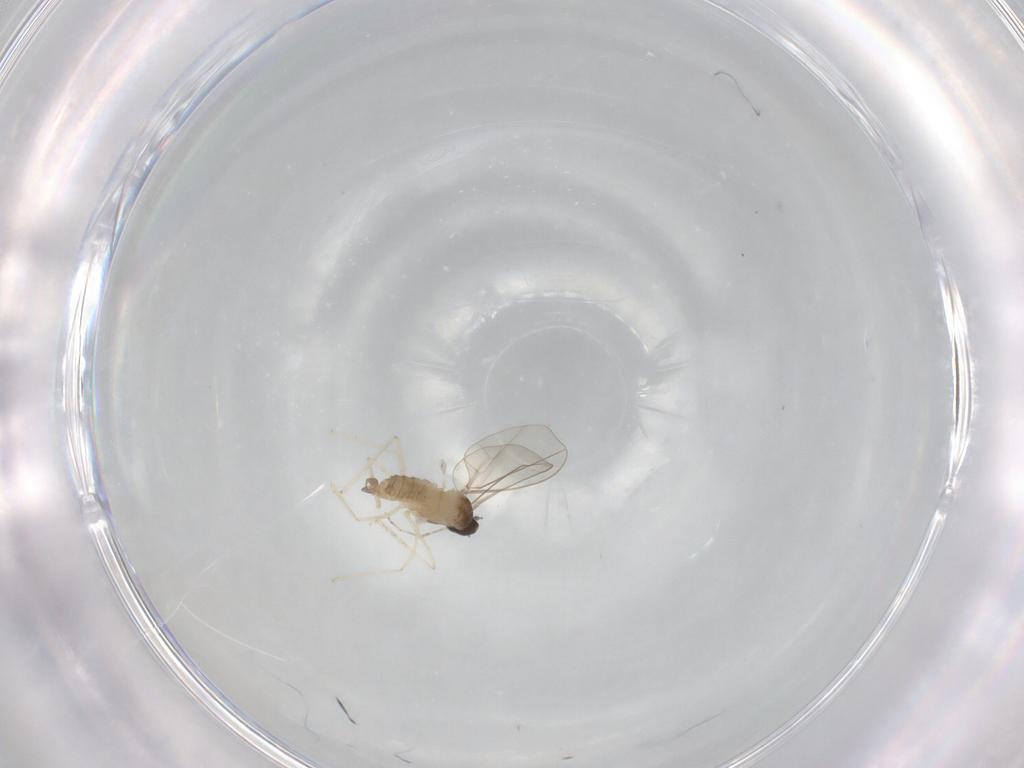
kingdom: Animalia
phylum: Arthropoda
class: Insecta
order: Diptera
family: Cecidomyiidae
